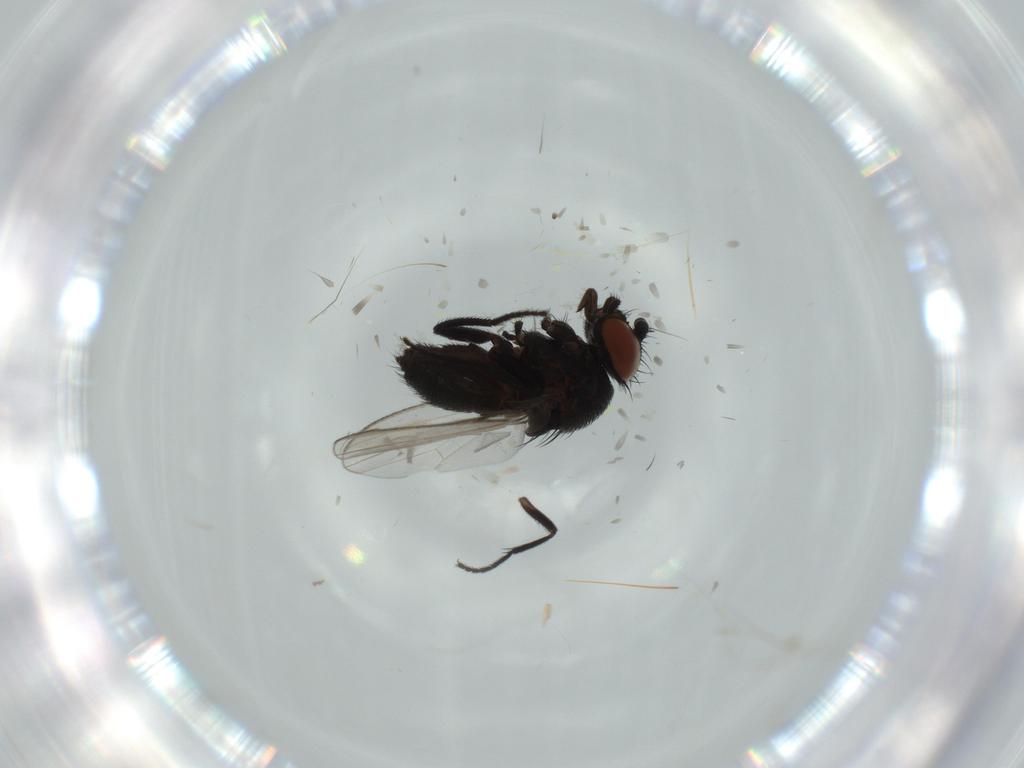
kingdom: Animalia
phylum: Arthropoda
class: Insecta
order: Diptera
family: Milichiidae
